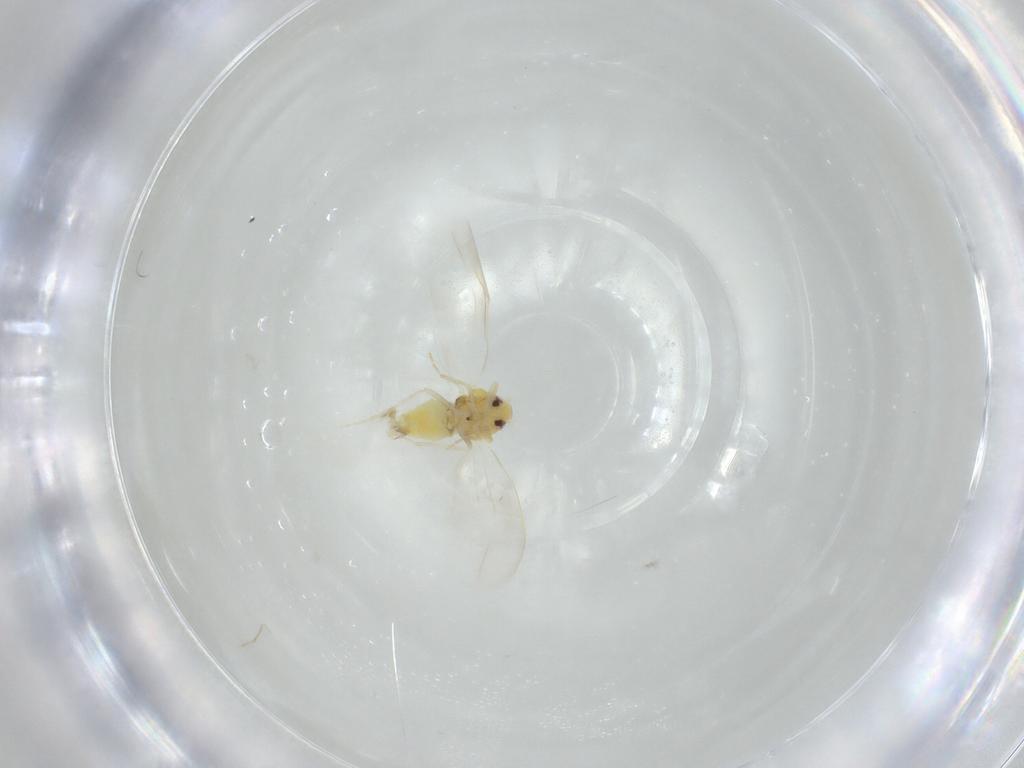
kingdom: Animalia
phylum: Arthropoda
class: Insecta
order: Hemiptera
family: Aleyrodidae
